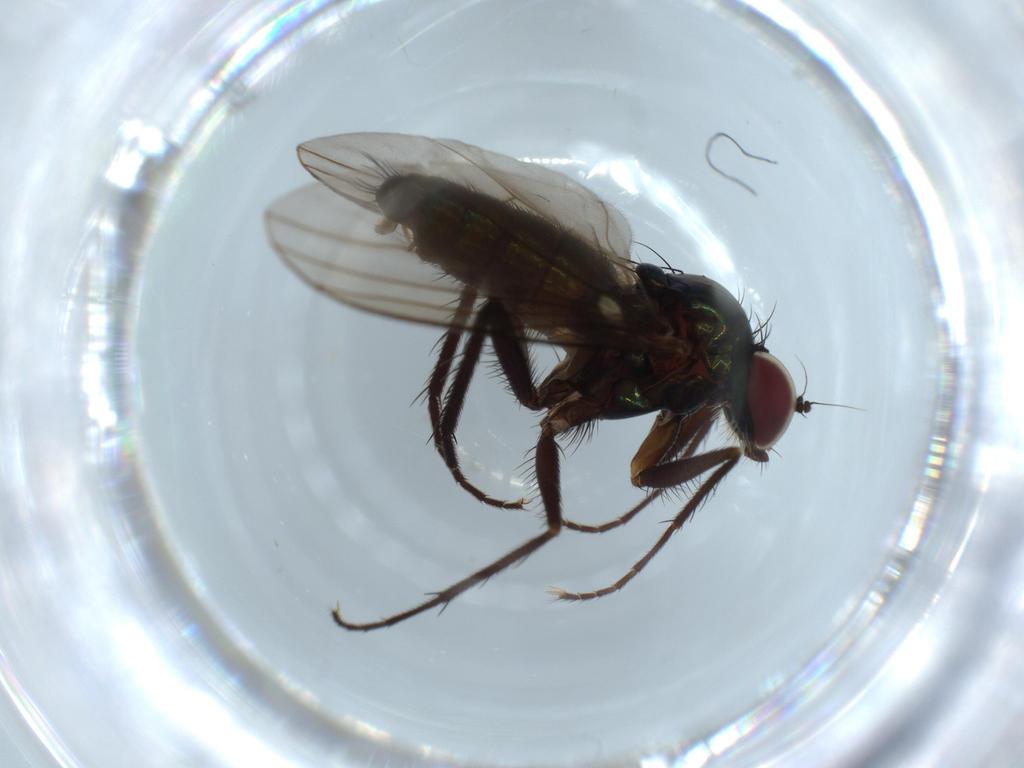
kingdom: Animalia
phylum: Arthropoda
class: Insecta
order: Diptera
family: Dolichopodidae
